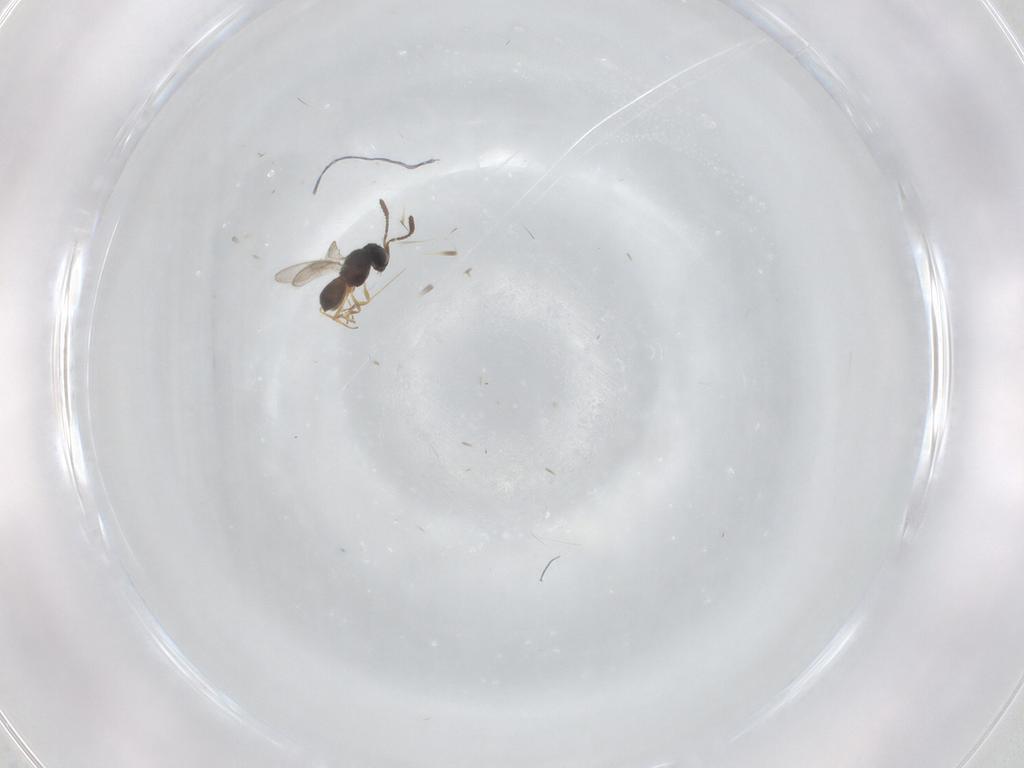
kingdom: Animalia
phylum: Arthropoda
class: Insecta
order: Hymenoptera
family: Scelionidae
